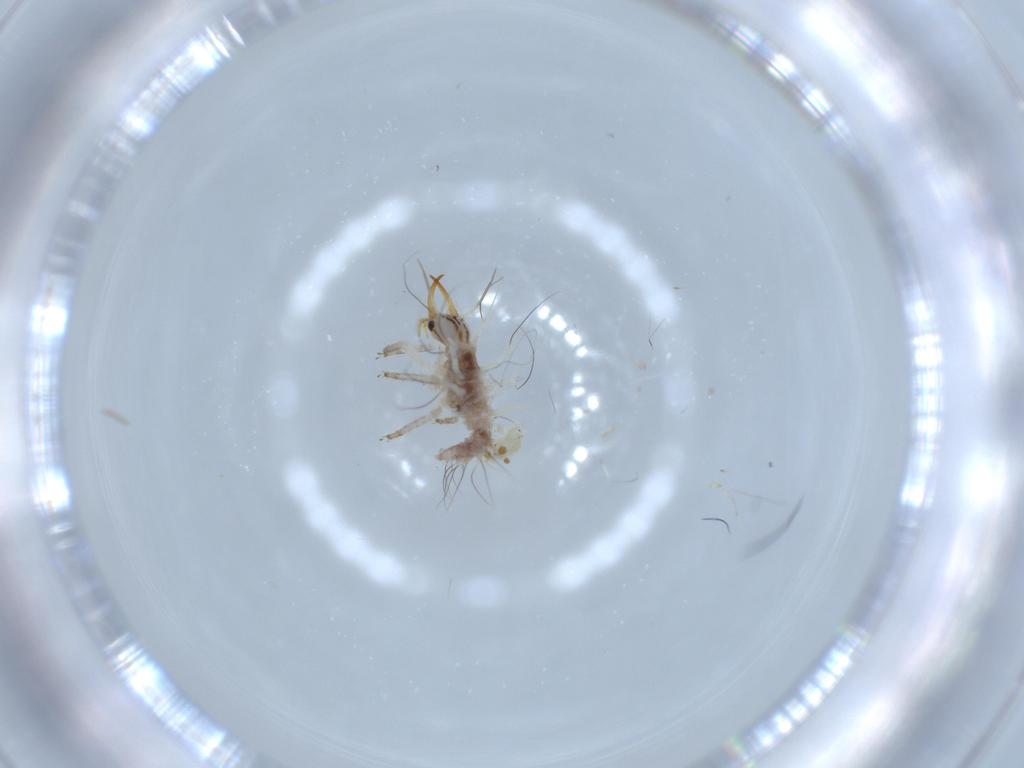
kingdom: Animalia
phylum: Arthropoda
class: Insecta
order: Neuroptera
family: Chrysopidae
